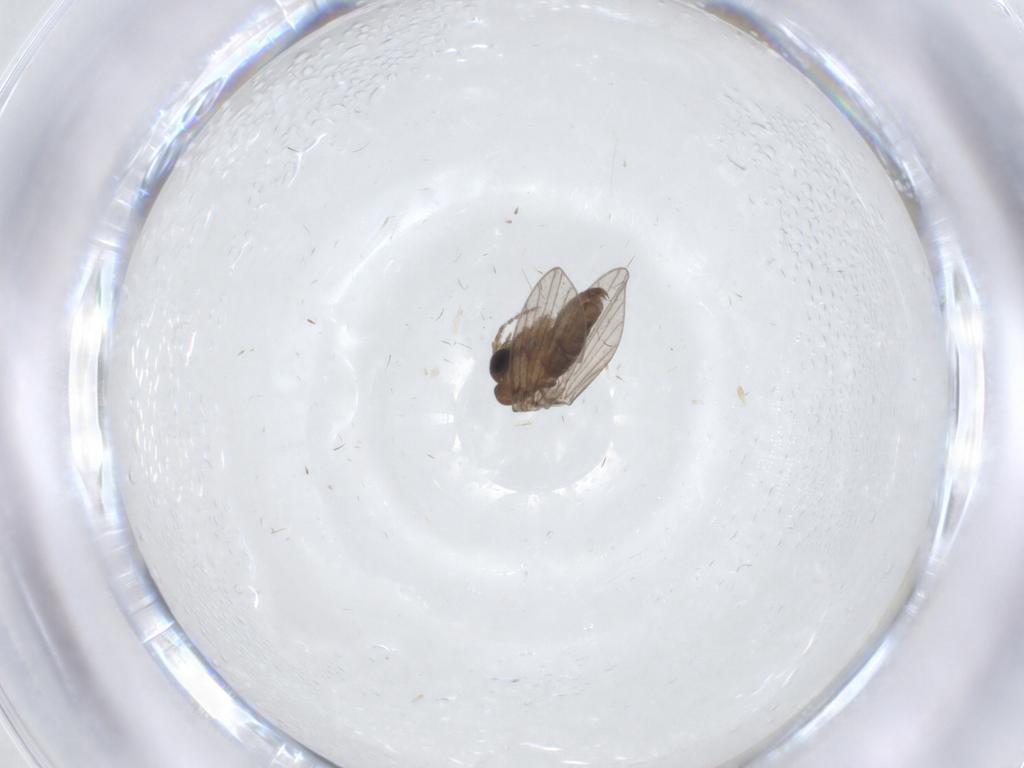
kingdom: Animalia
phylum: Arthropoda
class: Insecta
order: Diptera
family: Psychodidae
